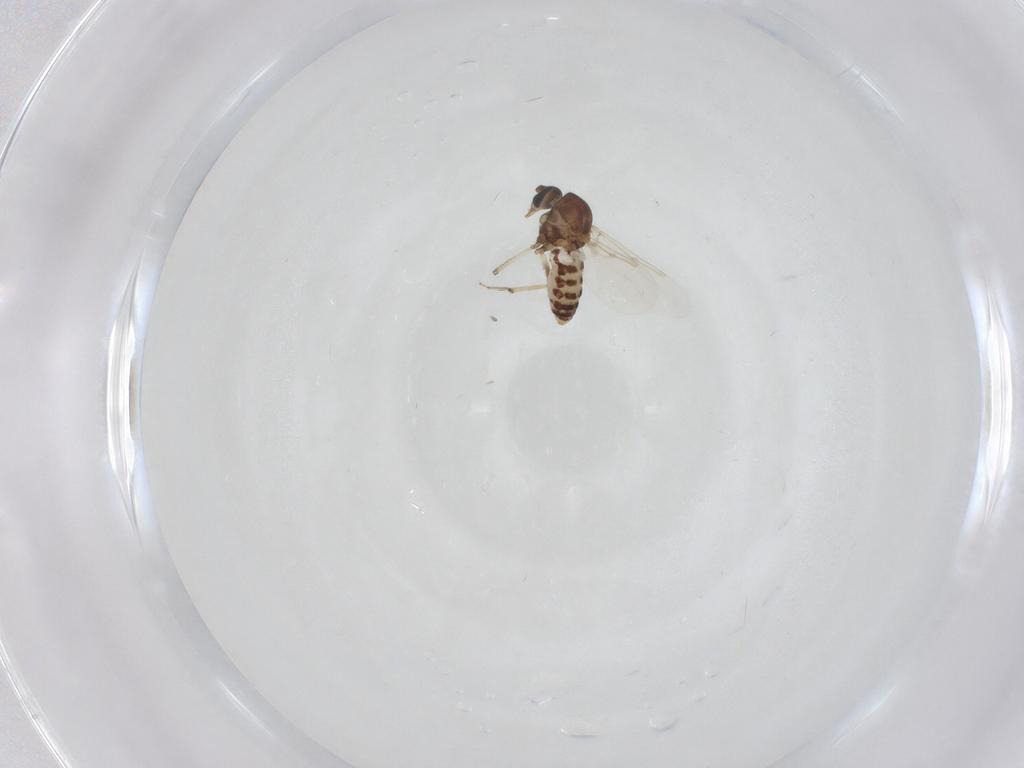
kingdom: Animalia
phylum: Arthropoda
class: Insecta
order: Diptera
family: Ceratopogonidae
